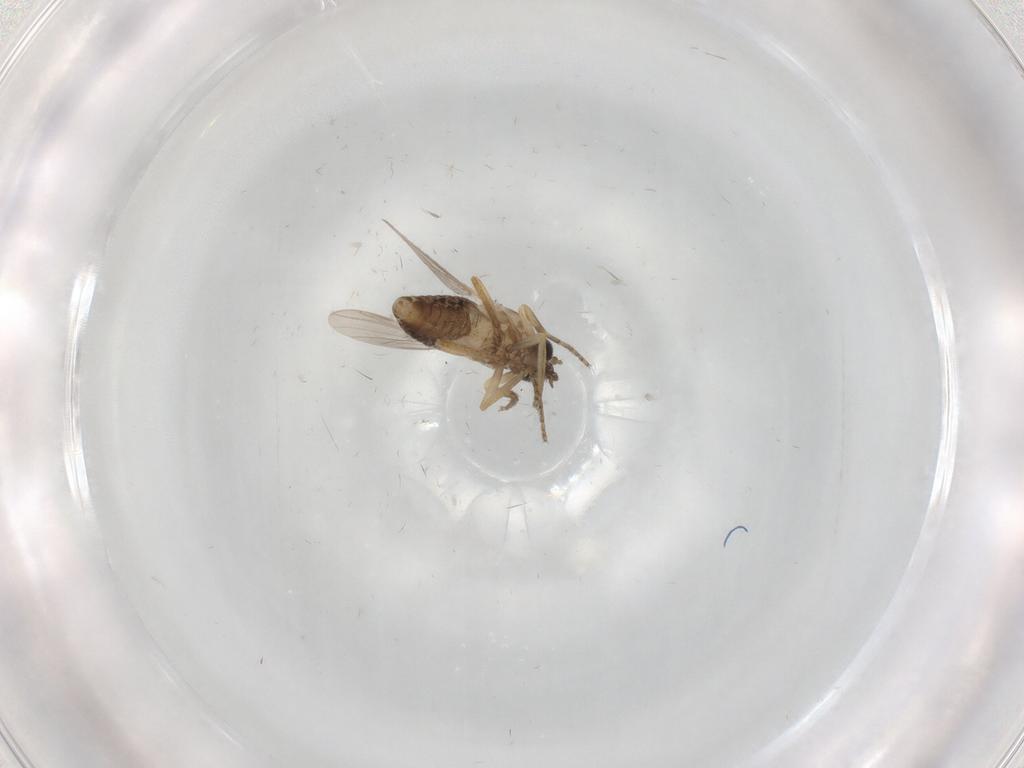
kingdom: Animalia
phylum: Arthropoda
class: Insecta
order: Diptera
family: Ceratopogonidae
